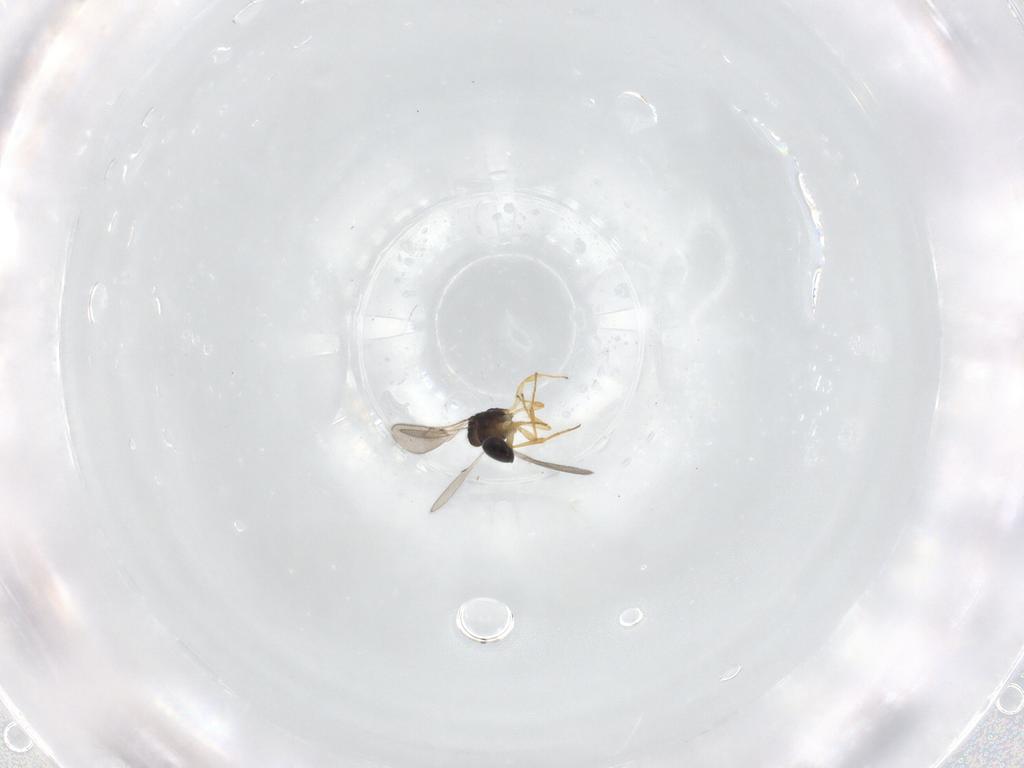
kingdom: Animalia
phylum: Arthropoda
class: Insecta
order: Hymenoptera
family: Scelionidae
